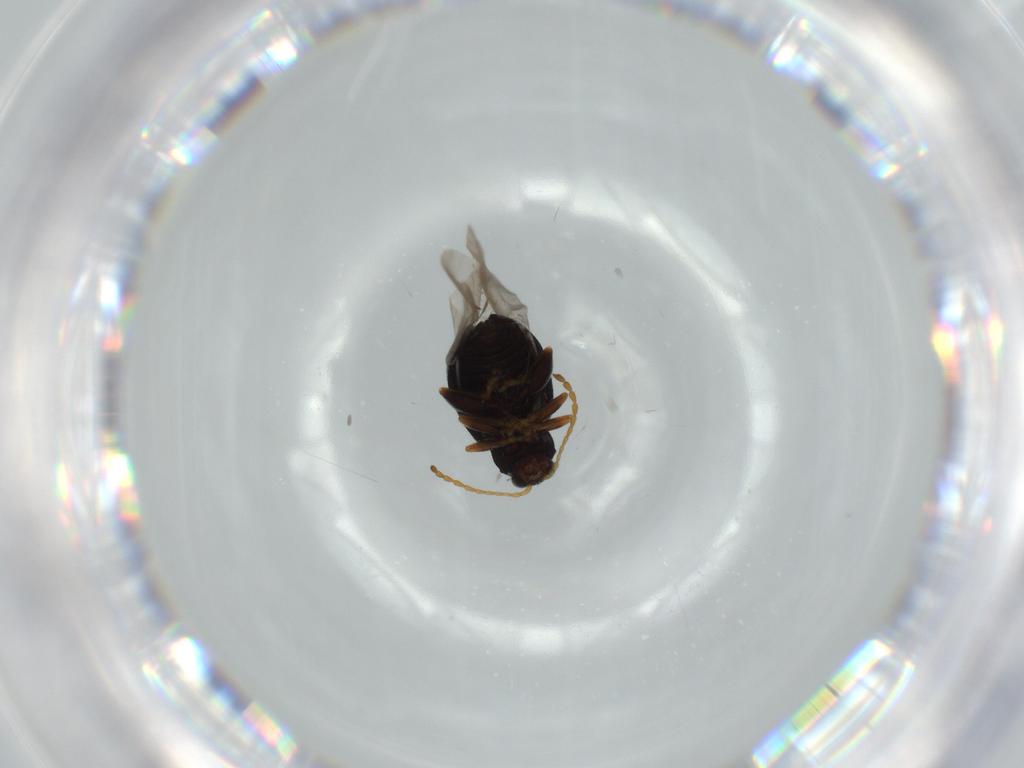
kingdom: Animalia
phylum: Arthropoda
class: Insecta
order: Coleoptera
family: Chrysomelidae
